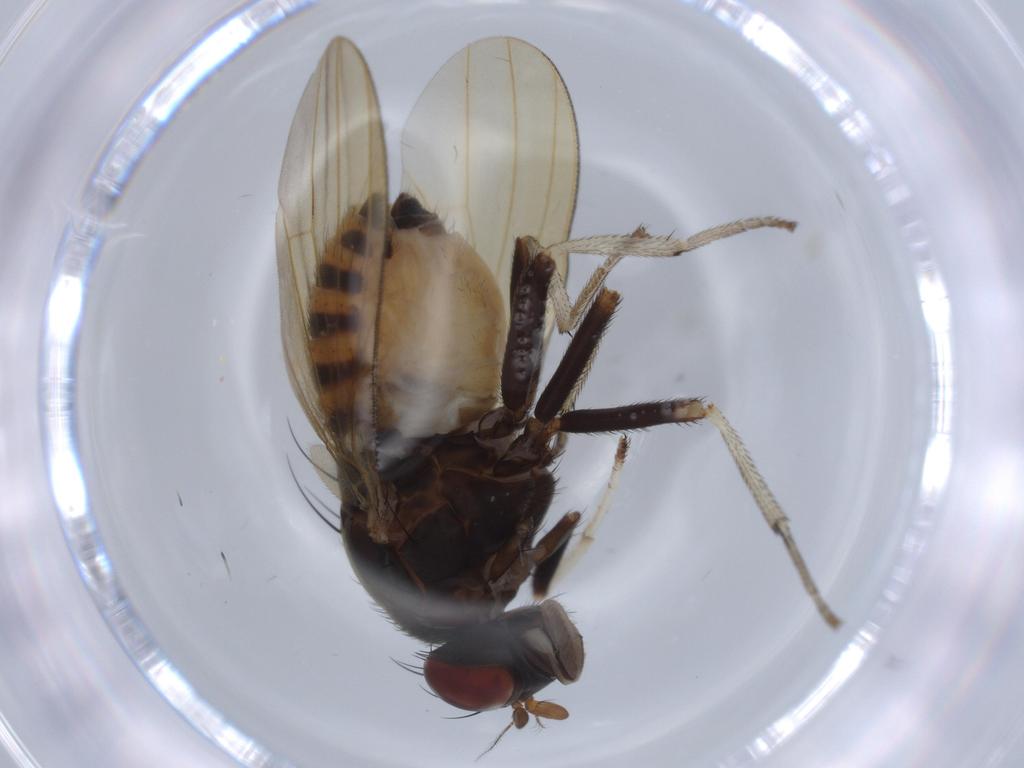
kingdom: Animalia
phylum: Arthropoda
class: Insecta
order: Diptera
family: Mycetophilidae
